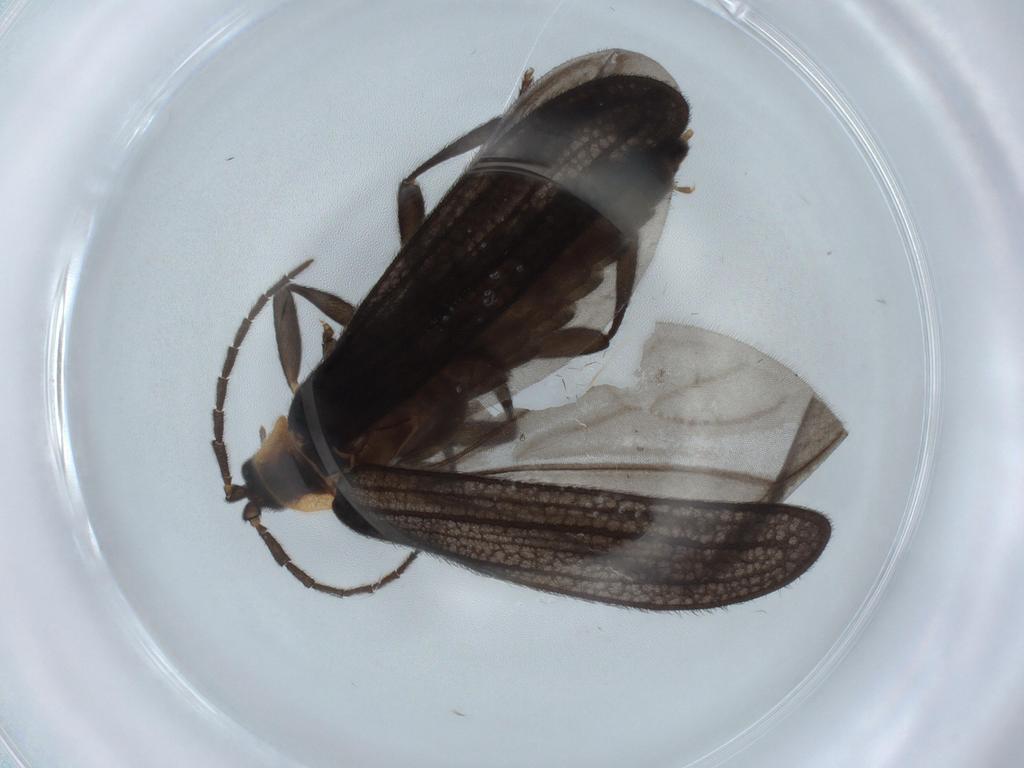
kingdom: Animalia
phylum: Arthropoda
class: Insecta
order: Coleoptera
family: Lycidae
